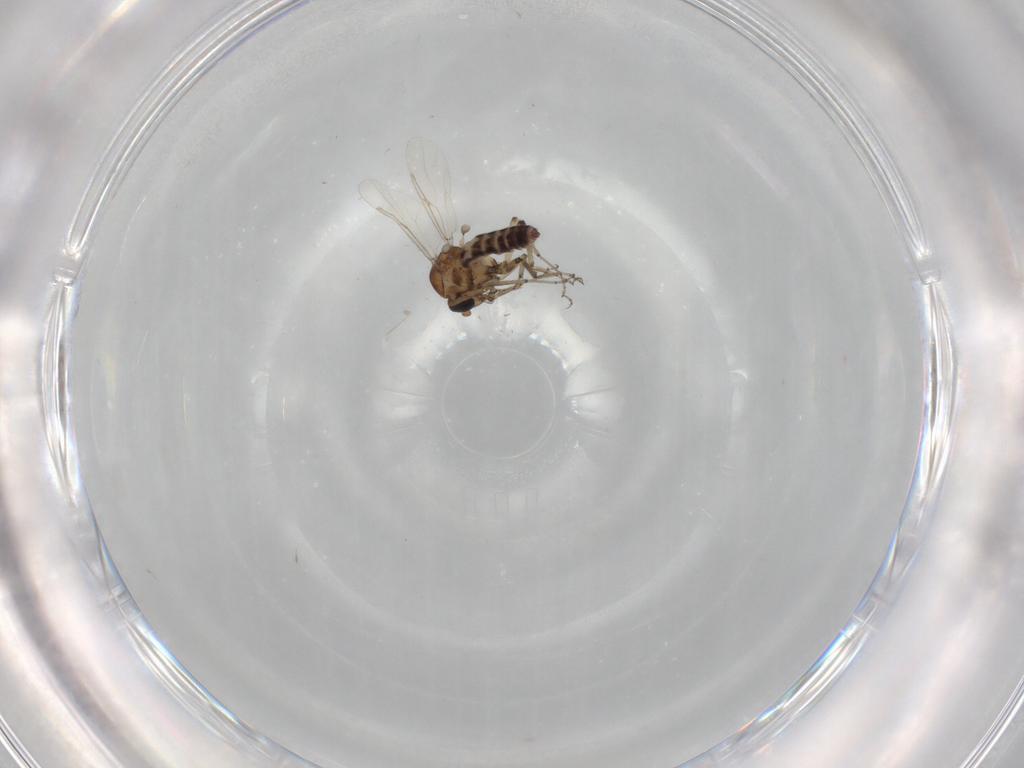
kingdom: Animalia
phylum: Arthropoda
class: Insecta
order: Diptera
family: Ceratopogonidae
